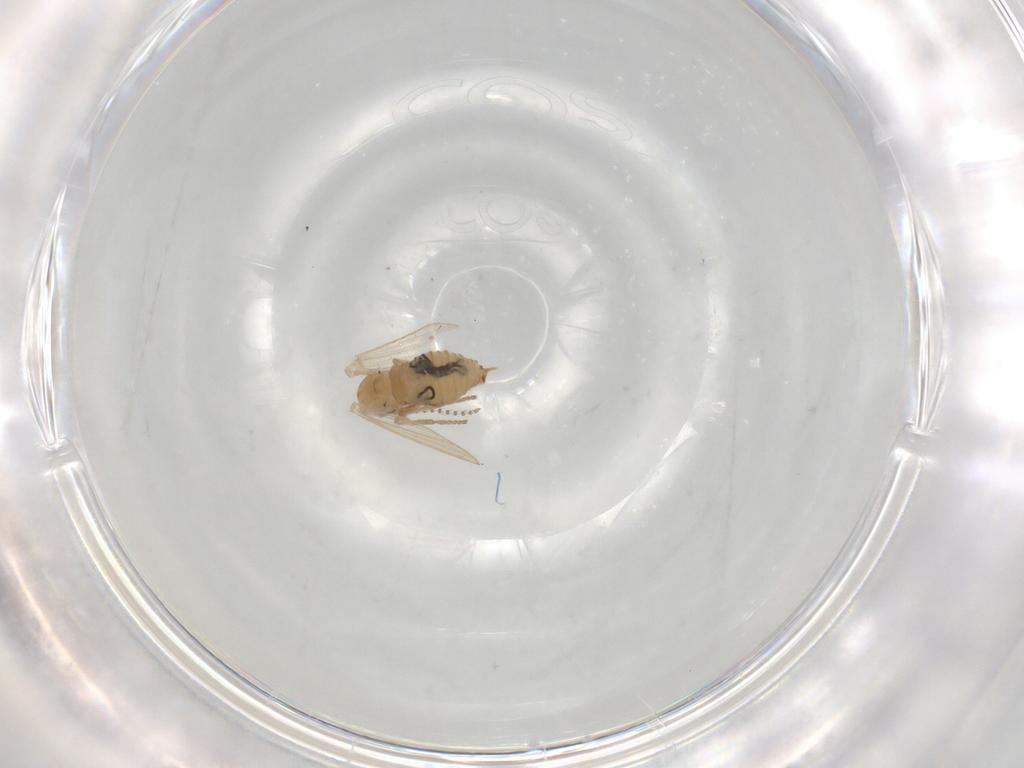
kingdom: Animalia
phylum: Arthropoda
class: Insecta
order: Diptera
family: Psychodidae
